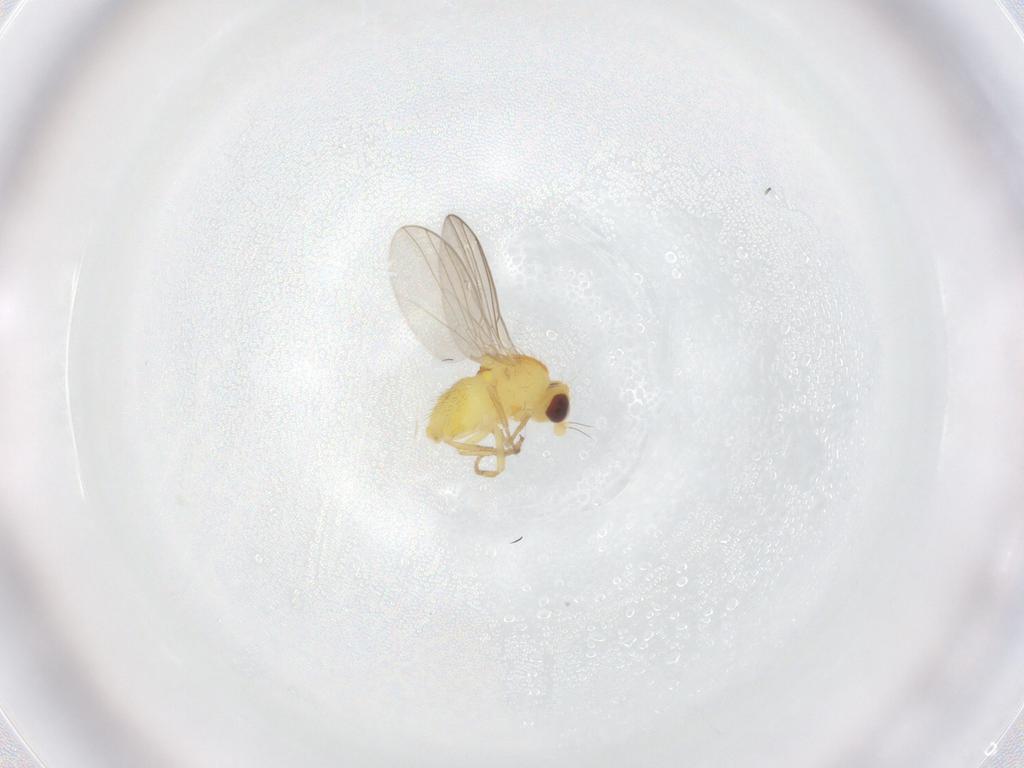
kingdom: Animalia
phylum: Arthropoda
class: Insecta
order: Diptera
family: Agromyzidae
